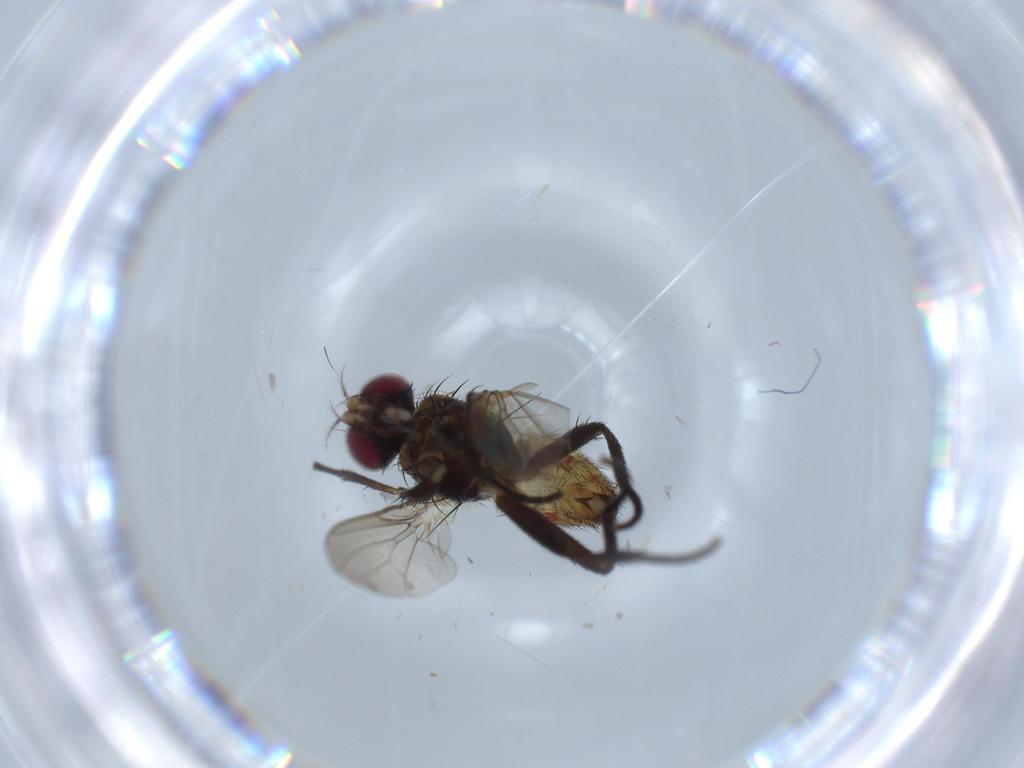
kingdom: Animalia
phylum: Arthropoda
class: Insecta
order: Diptera
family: Anthomyiidae
